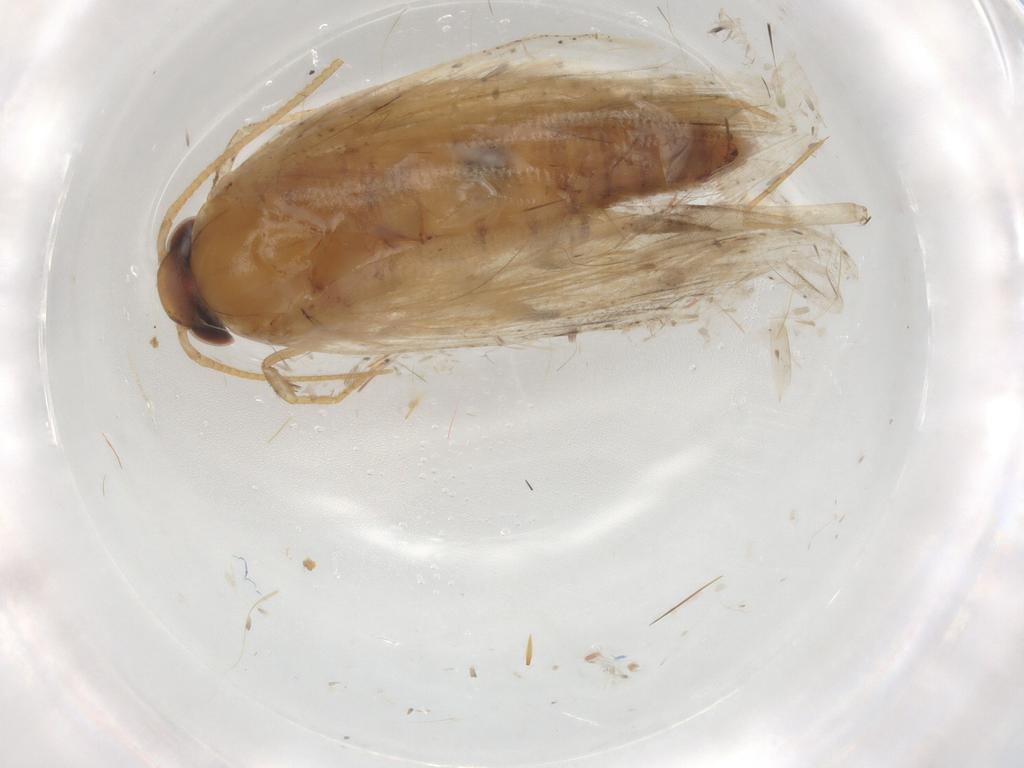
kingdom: Animalia
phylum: Arthropoda
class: Insecta
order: Lepidoptera
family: Depressariidae
